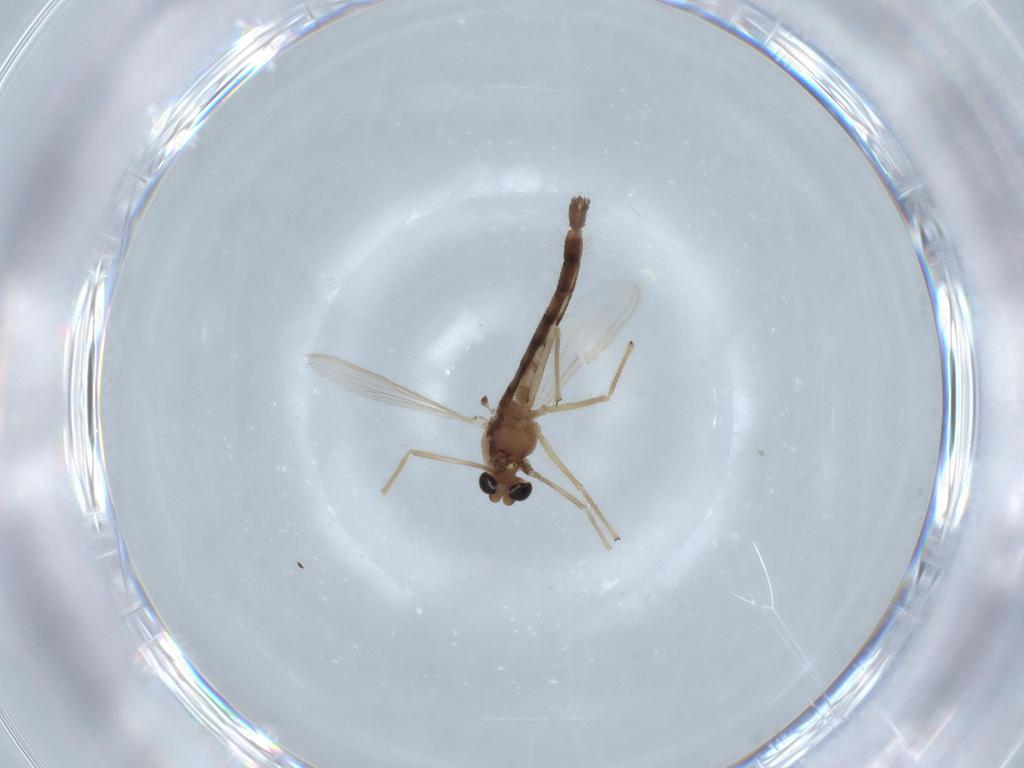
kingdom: Animalia
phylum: Arthropoda
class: Insecta
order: Diptera
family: Chironomidae
